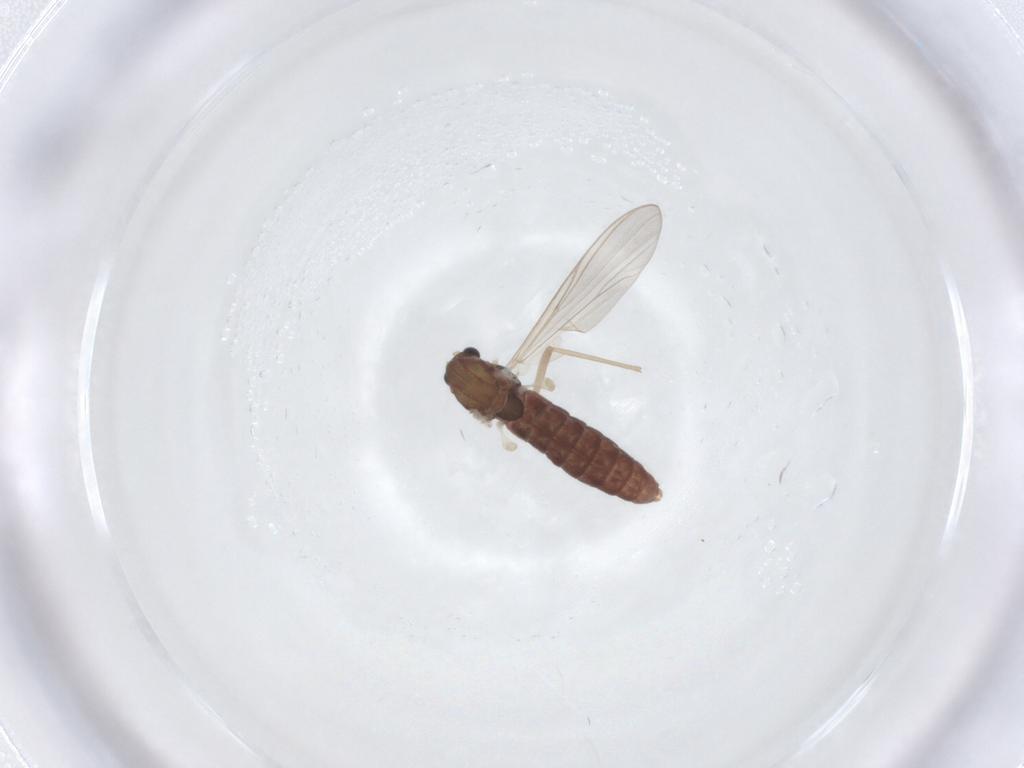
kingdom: Animalia
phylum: Arthropoda
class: Insecta
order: Diptera
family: Chironomidae
